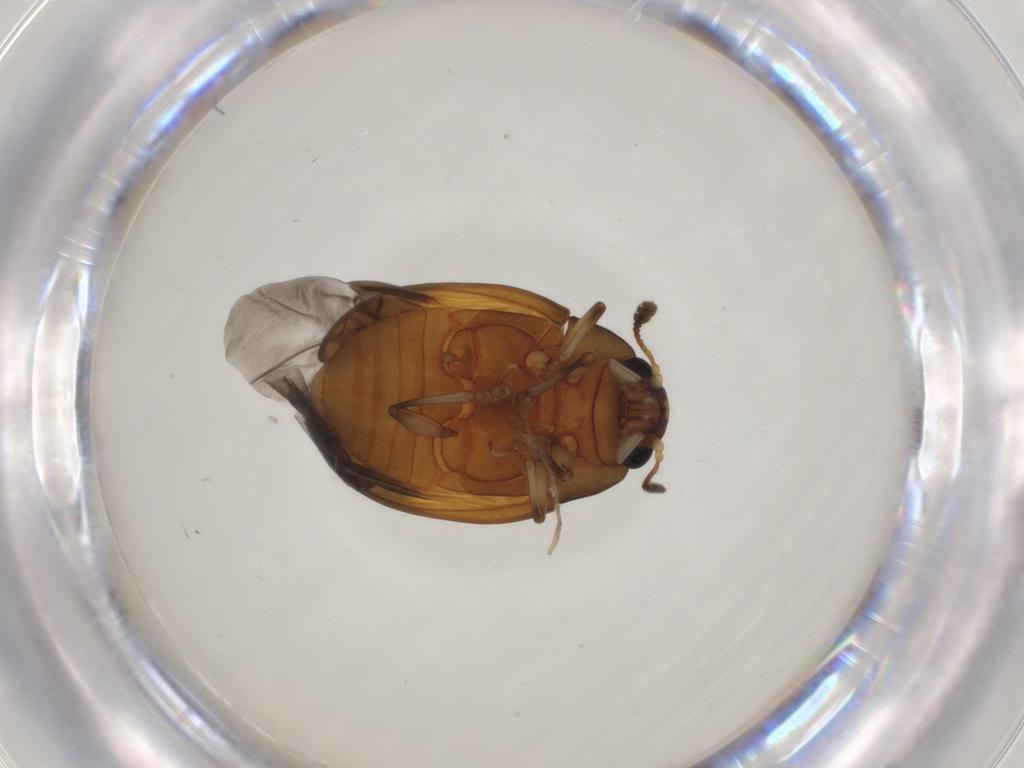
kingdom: Animalia
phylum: Arthropoda
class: Insecta
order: Coleoptera
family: Erotylidae
